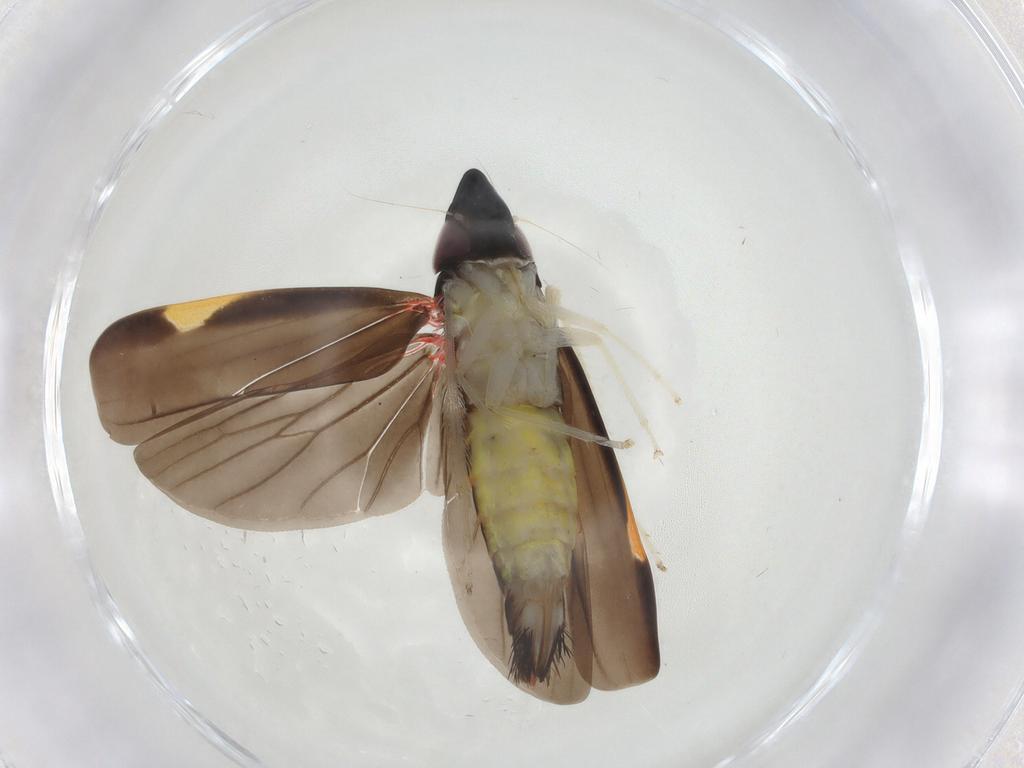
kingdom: Animalia
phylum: Arthropoda
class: Insecta
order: Hemiptera
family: Cicadellidae
